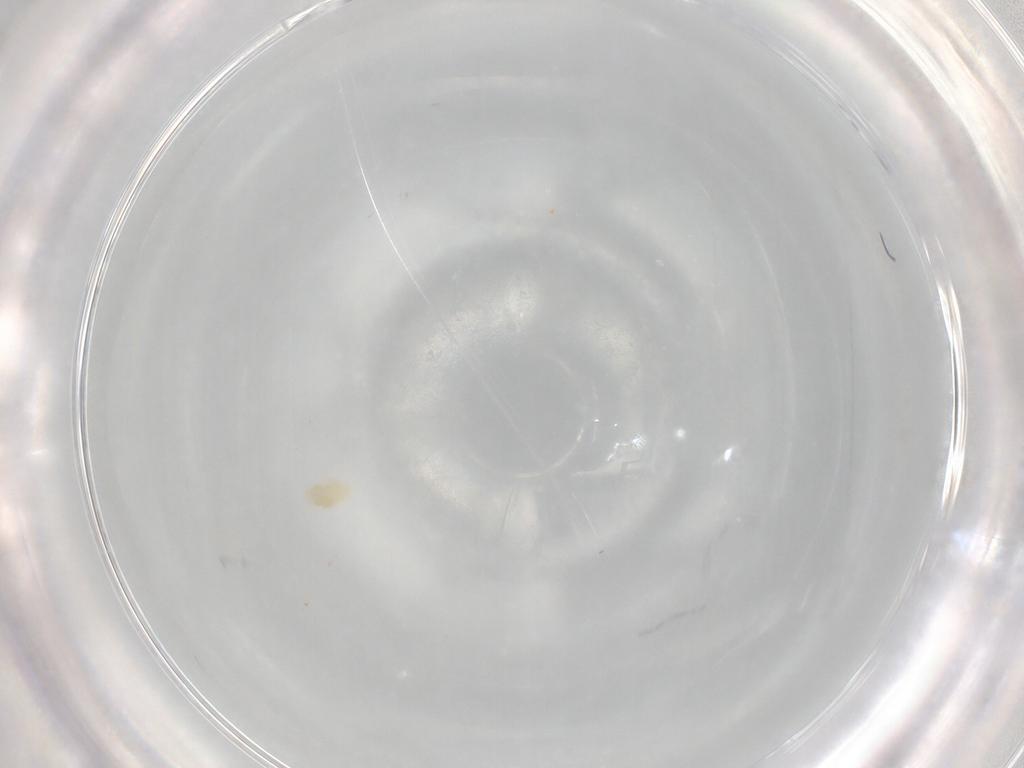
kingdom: Animalia
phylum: Arthropoda
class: Arachnida
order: Trombidiformes
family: Eupodidae
